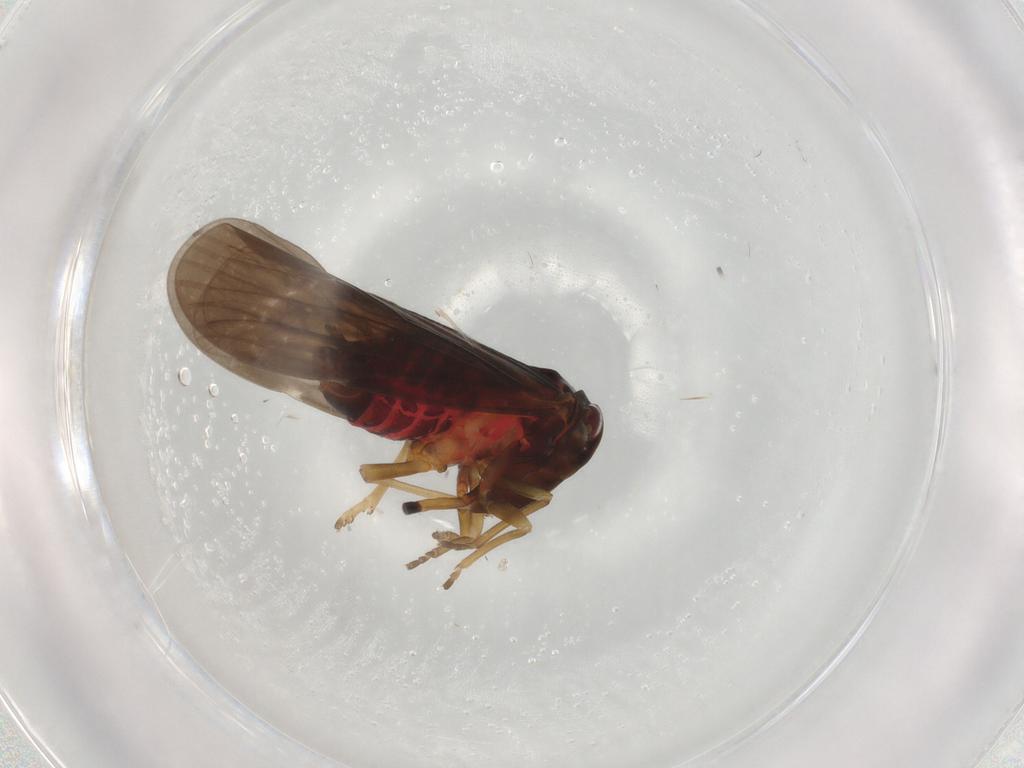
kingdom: Animalia
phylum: Arthropoda
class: Insecta
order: Hemiptera
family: Derbidae
